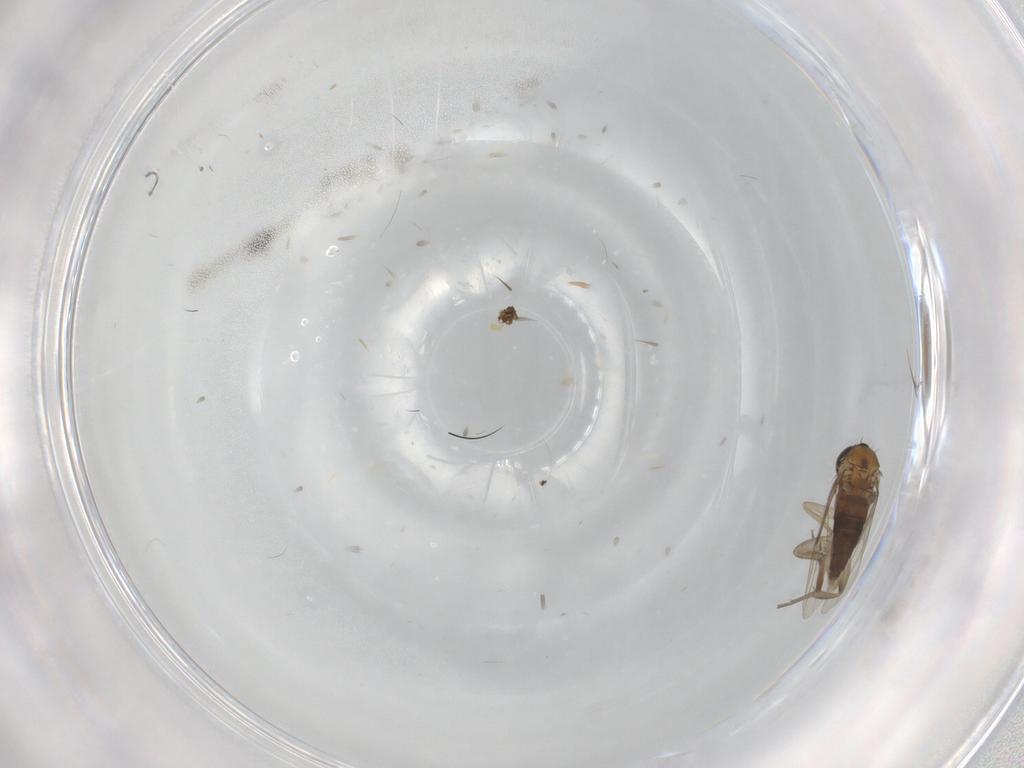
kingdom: Animalia
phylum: Arthropoda
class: Insecta
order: Diptera
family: Phoridae
